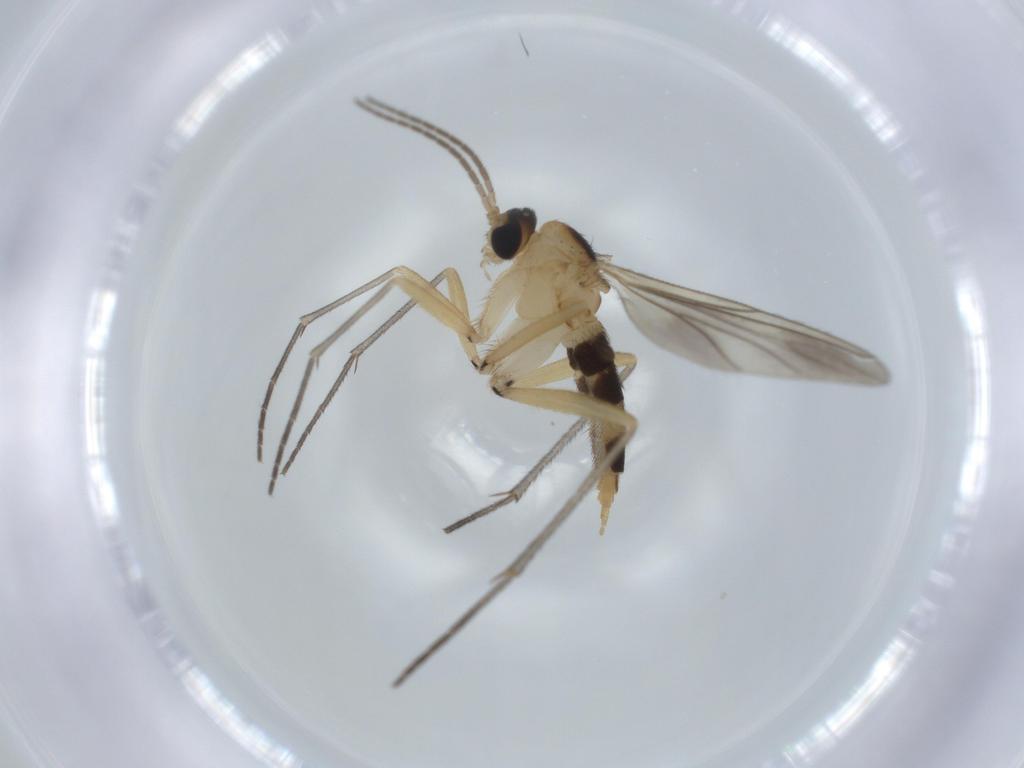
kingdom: Animalia
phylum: Arthropoda
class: Insecta
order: Diptera
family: Sciaridae
